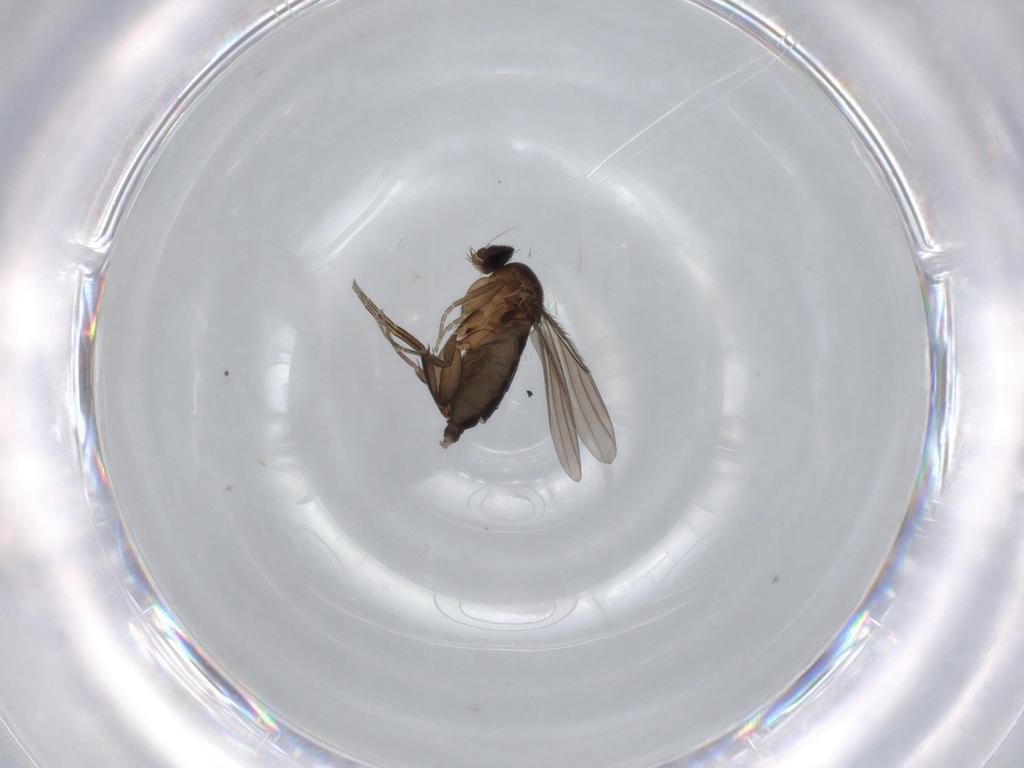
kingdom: Animalia
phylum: Arthropoda
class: Insecta
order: Diptera
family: Phoridae
